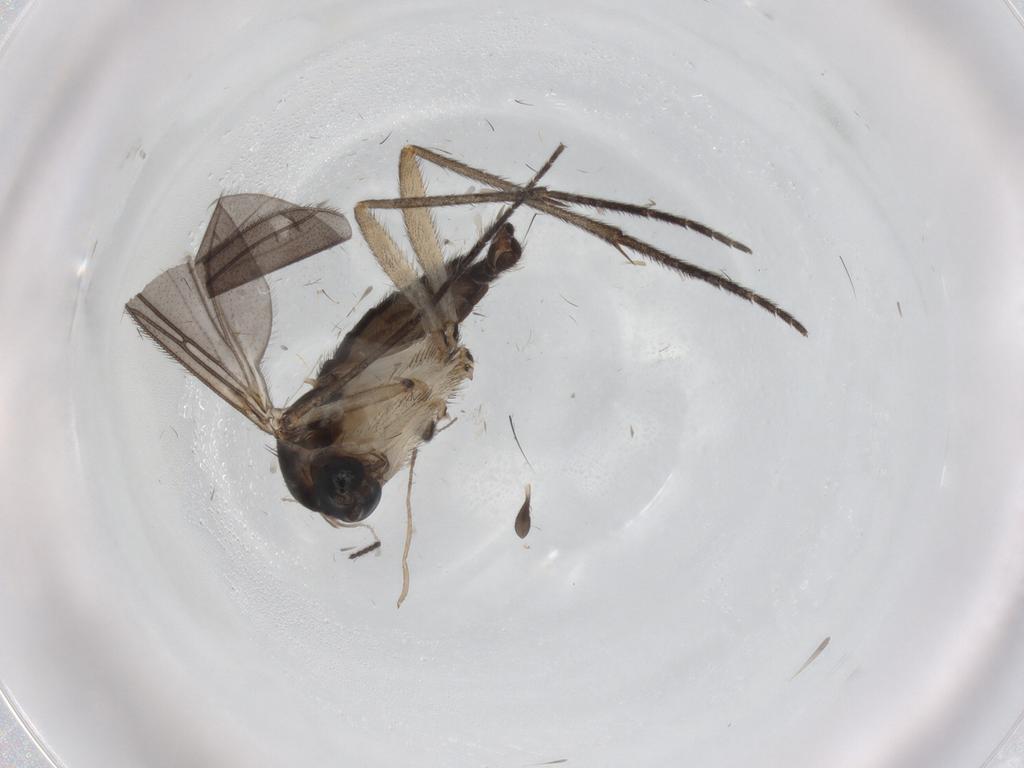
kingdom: Animalia
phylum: Arthropoda
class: Insecta
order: Diptera
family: Sciaridae
